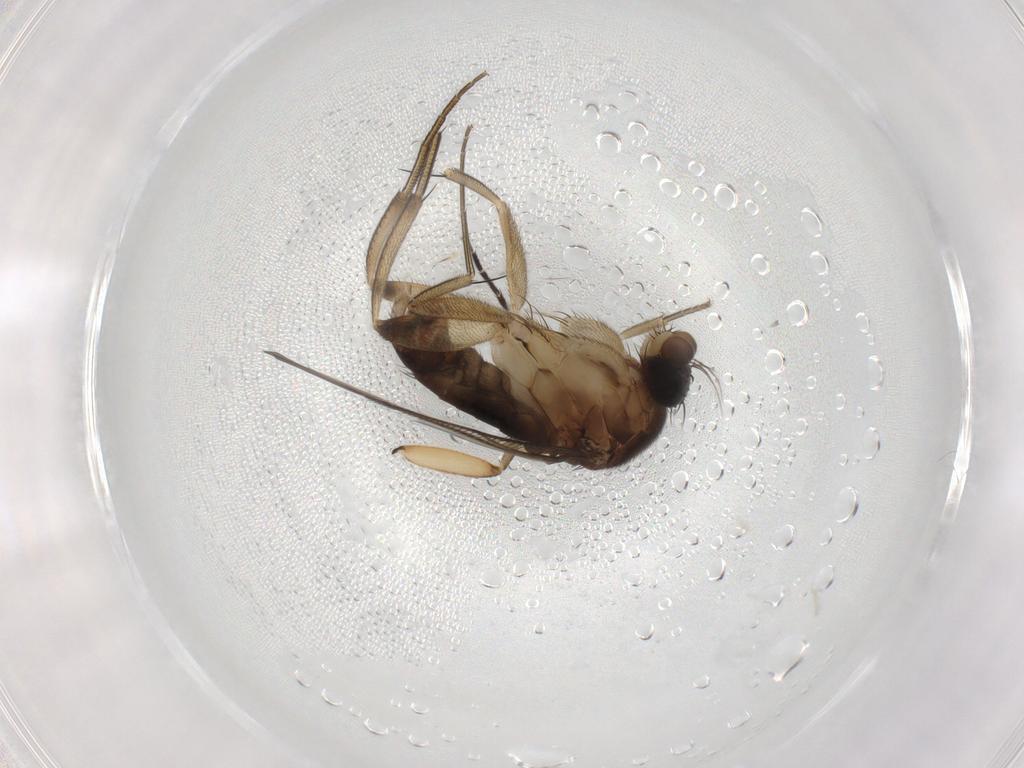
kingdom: Animalia
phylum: Arthropoda
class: Insecta
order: Diptera
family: Phoridae
